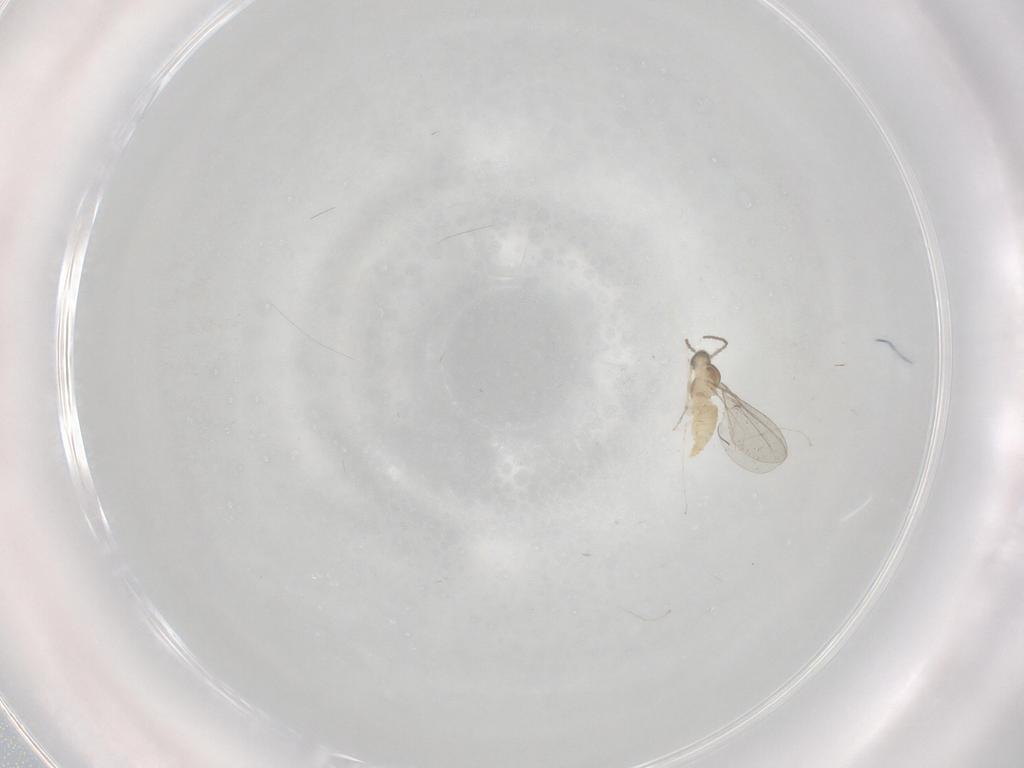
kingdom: Animalia
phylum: Arthropoda
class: Insecta
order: Diptera
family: Cecidomyiidae
